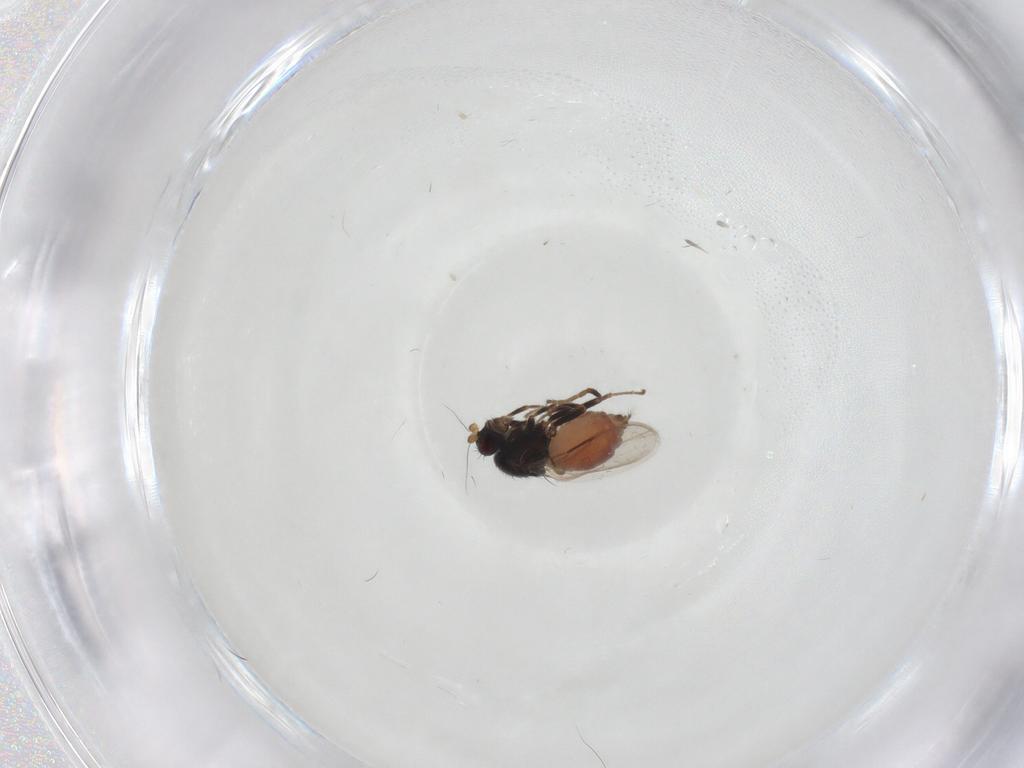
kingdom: Animalia
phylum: Arthropoda
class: Insecta
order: Diptera
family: Sphaeroceridae
